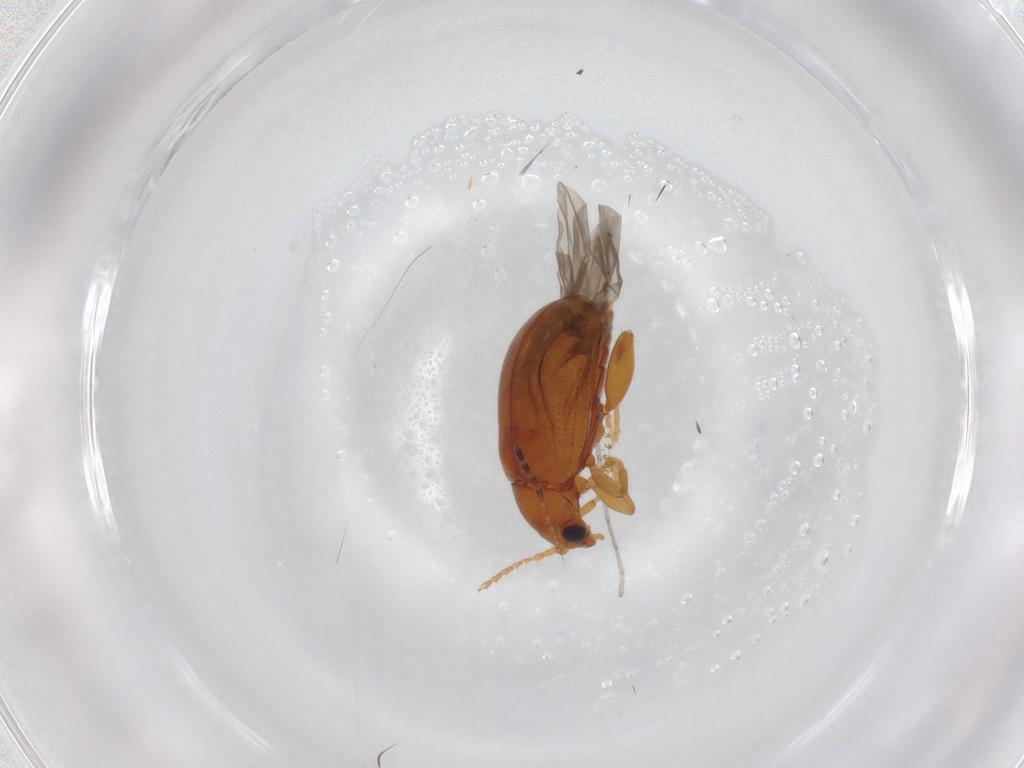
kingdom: Animalia
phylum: Arthropoda
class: Insecta
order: Coleoptera
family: Chrysomelidae
